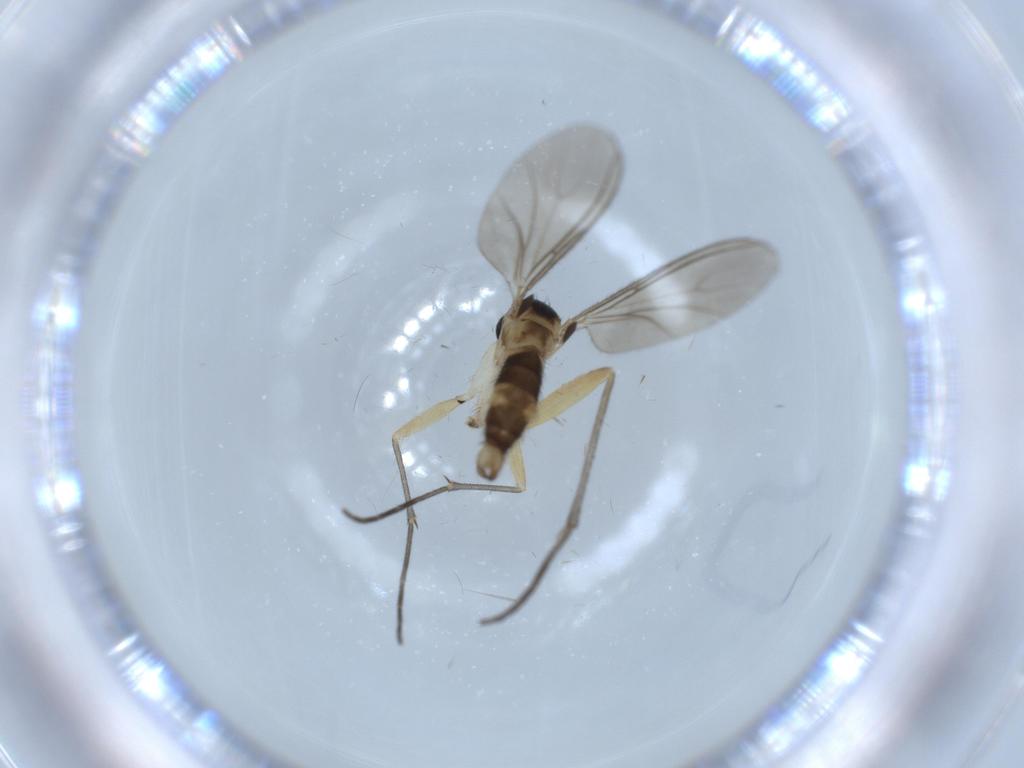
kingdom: Animalia
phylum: Arthropoda
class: Insecta
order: Diptera
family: Sciaridae
